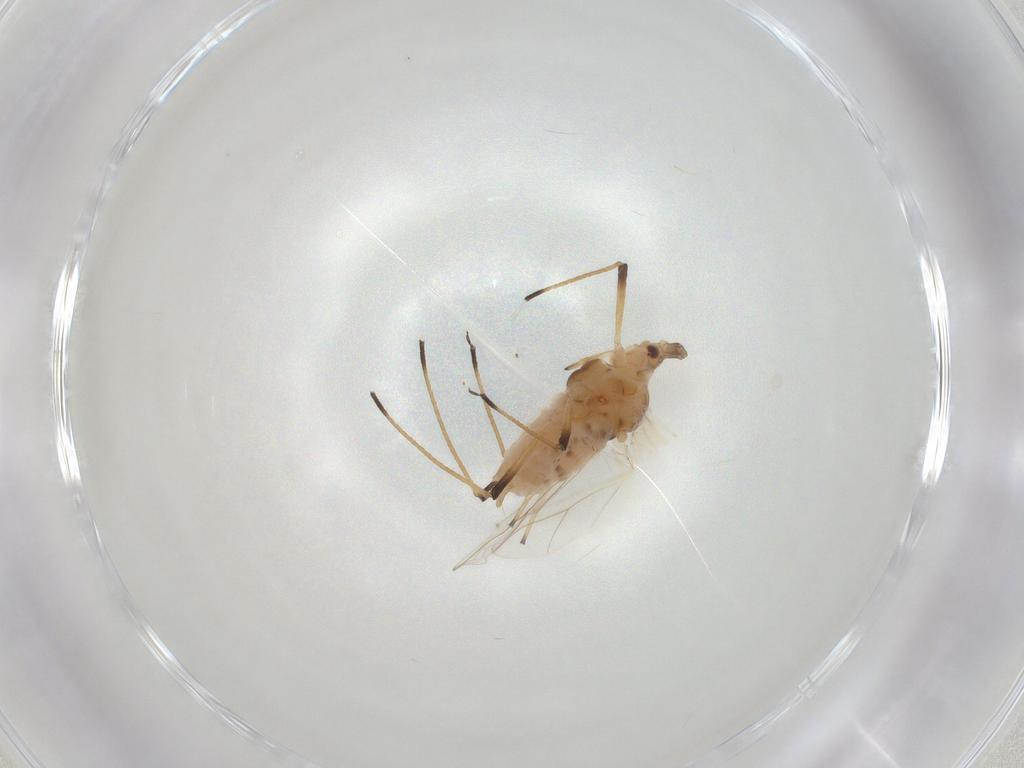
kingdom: Animalia
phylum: Arthropoda
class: Insecta
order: Hemiptera
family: Aphididae
